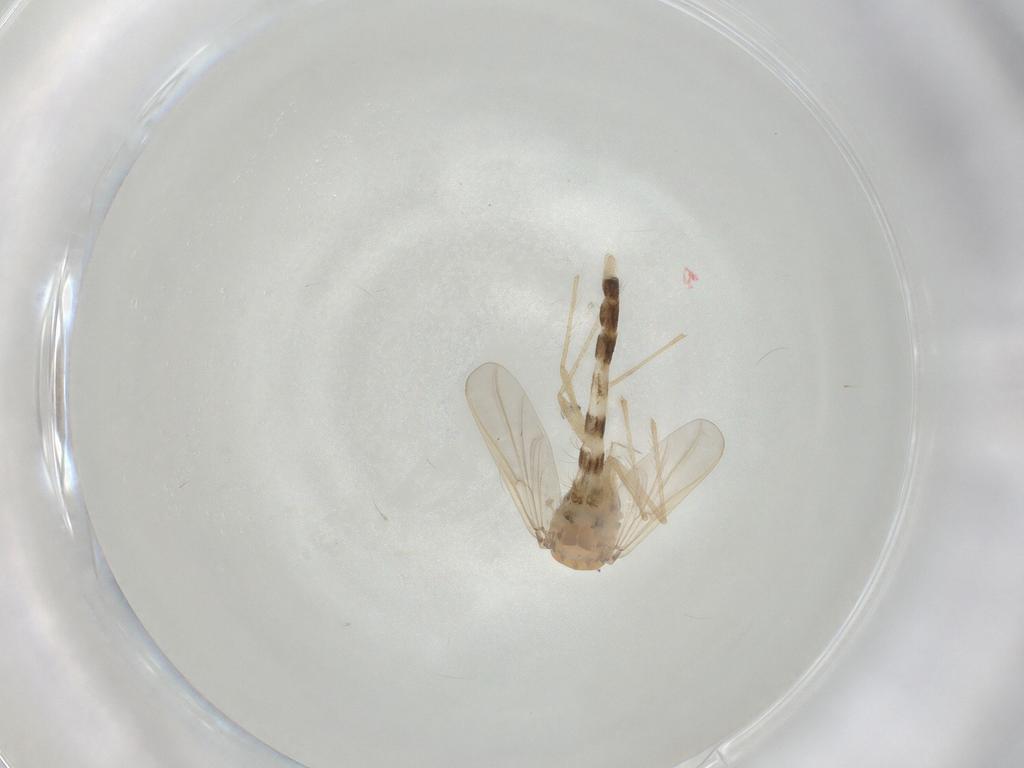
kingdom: Animalia
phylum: Arthropoda
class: Insecta
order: Diptera
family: Chironomidae
